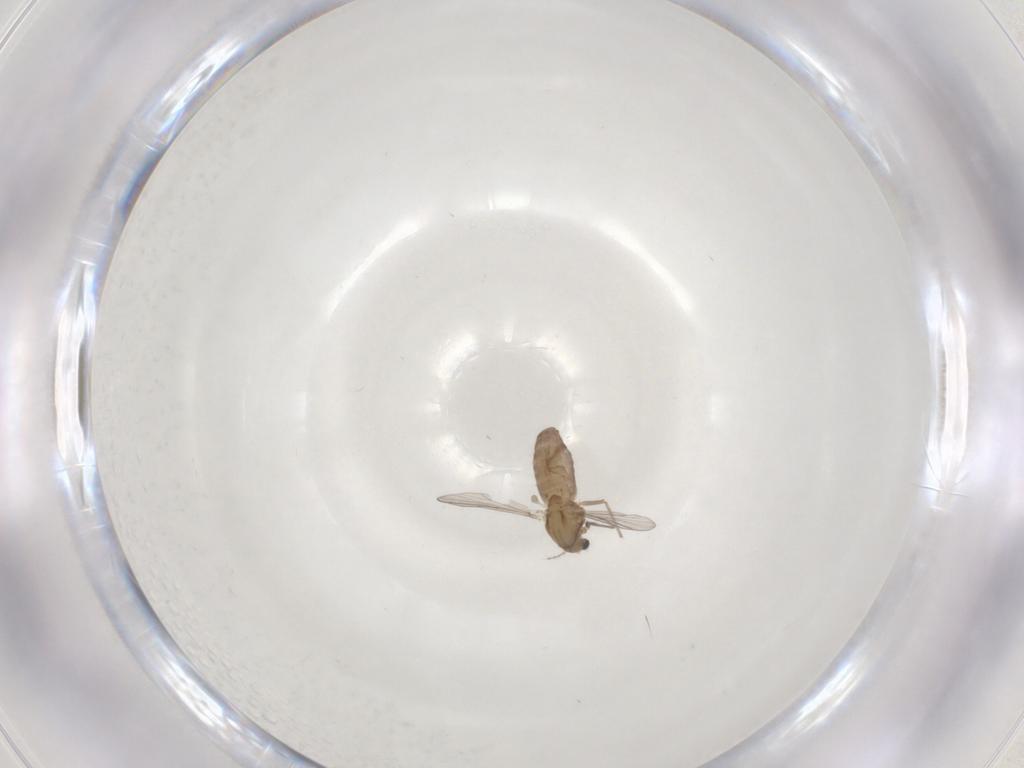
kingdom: Animalia
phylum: Arthropoda
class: Insecta
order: Diptera
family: Chironomidae
